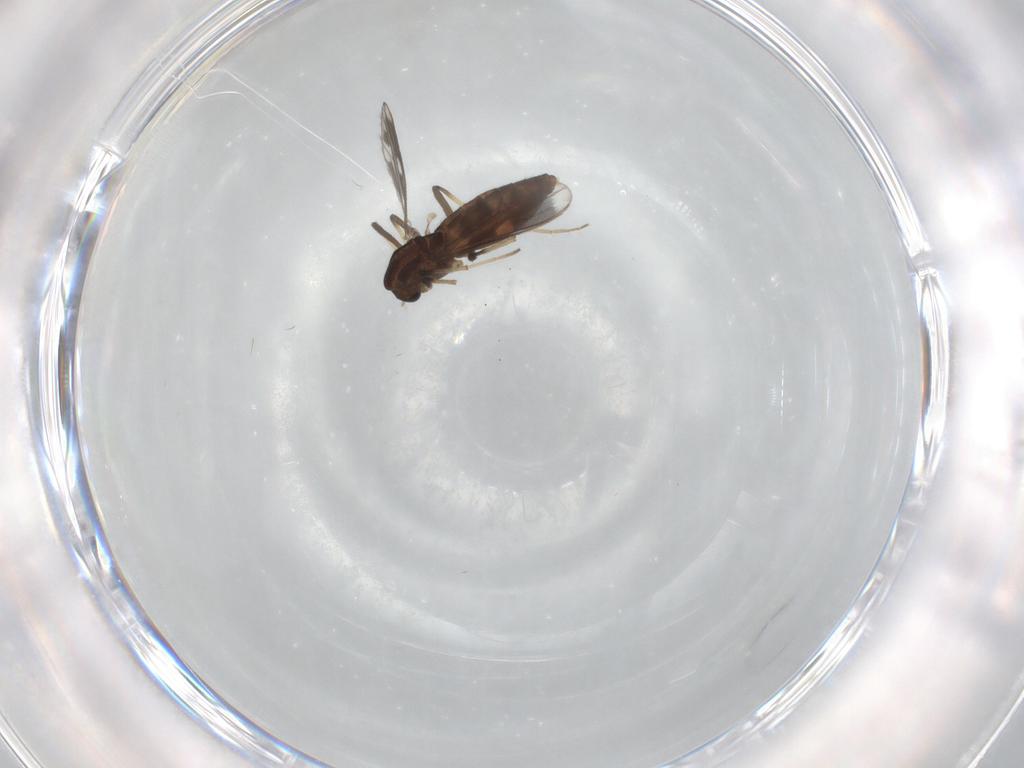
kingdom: Animalia
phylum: Arthropoda
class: Insecta
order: Diptera
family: Chironomidae
